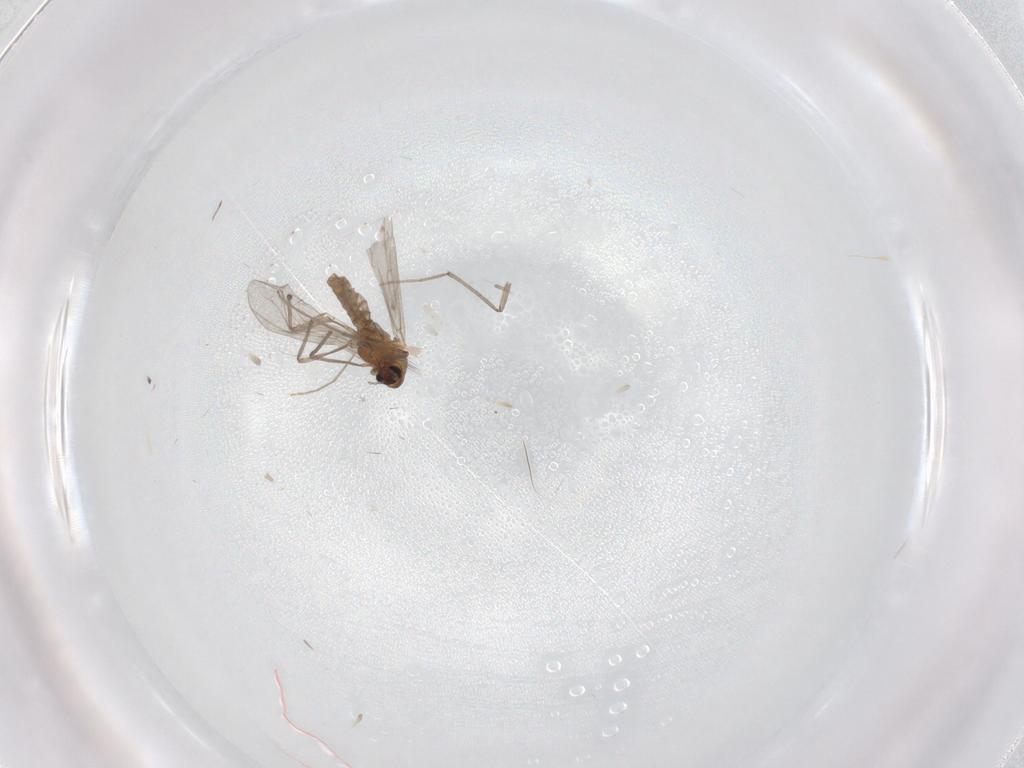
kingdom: Animalia
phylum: Arthropoda
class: Insecta
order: Diptera
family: Chironomidae
